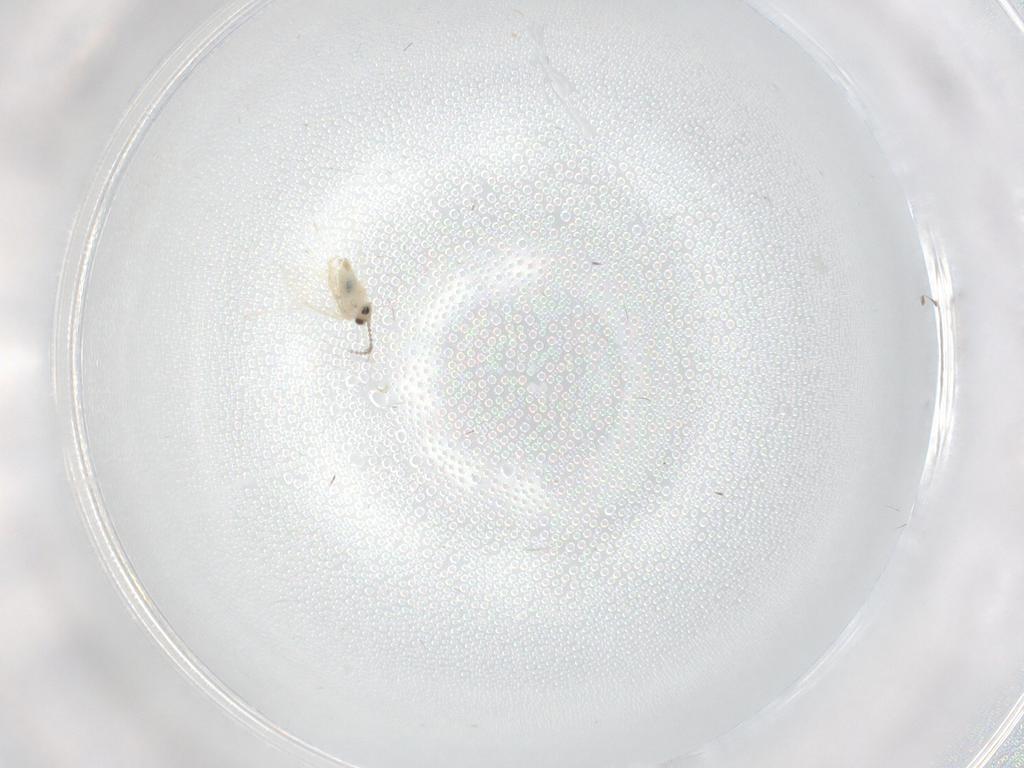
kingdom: Animalia
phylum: Arthropoda
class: Insecta
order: Diptera
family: Cecidomyiidae
